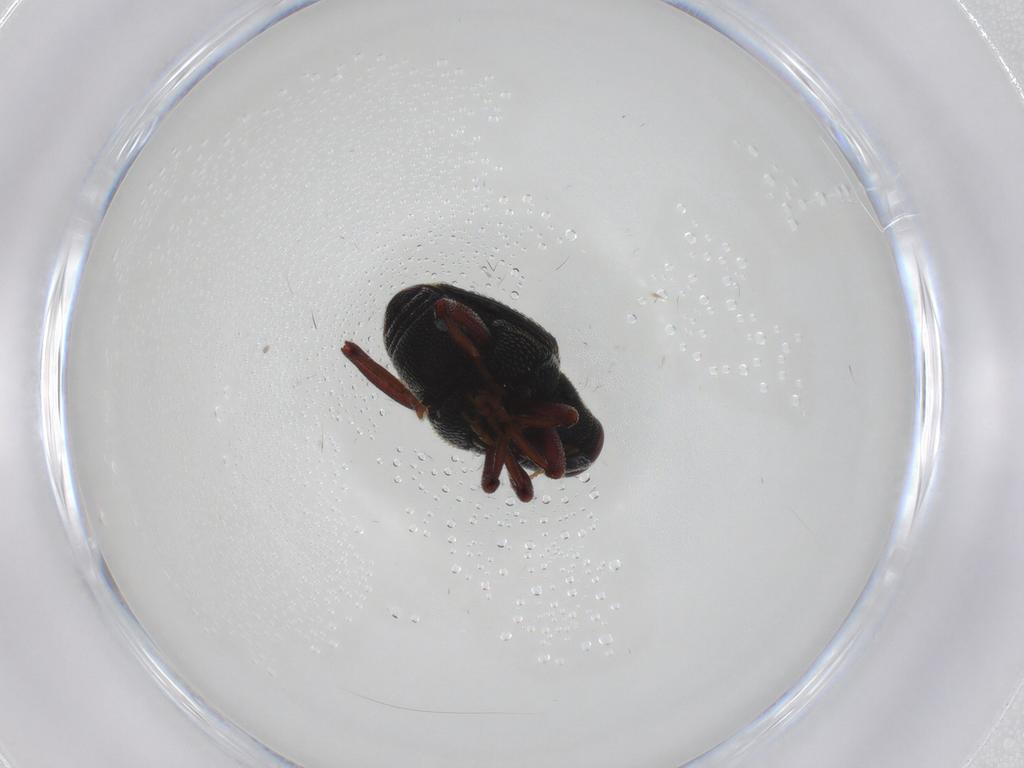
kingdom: Animalia
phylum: Arthropoda
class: Insecta
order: Coleoptera
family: Curculionidae
